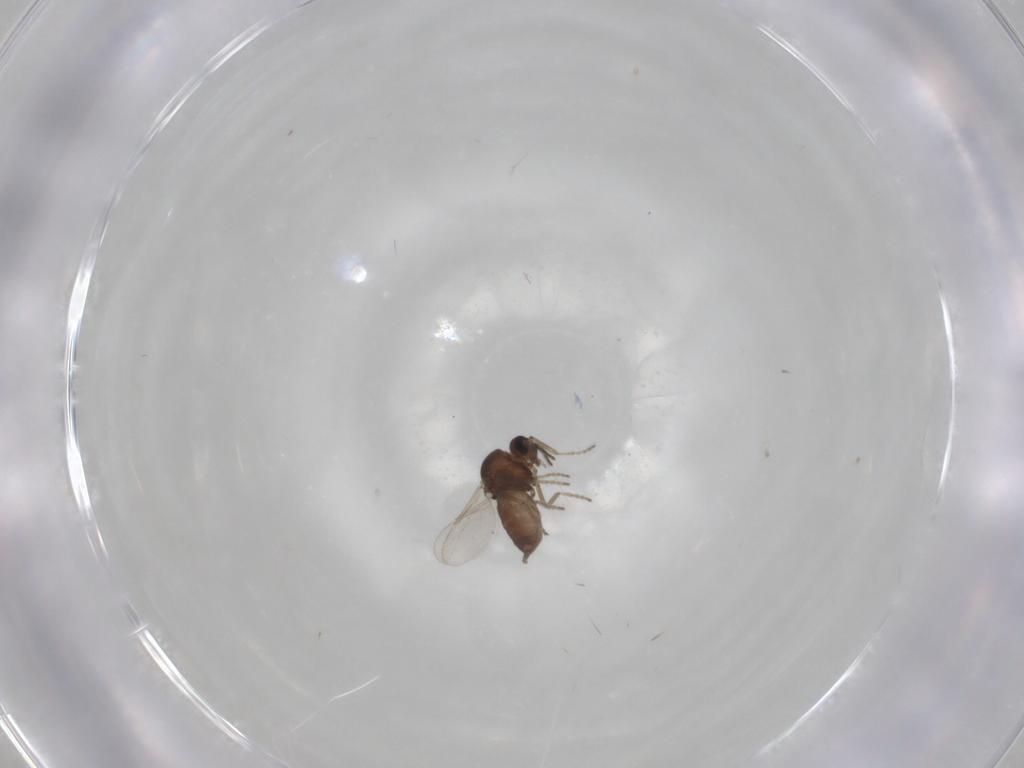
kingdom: Animalia
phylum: Arthropoda
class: Insecta
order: Diptera
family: Ceratopogonidae
